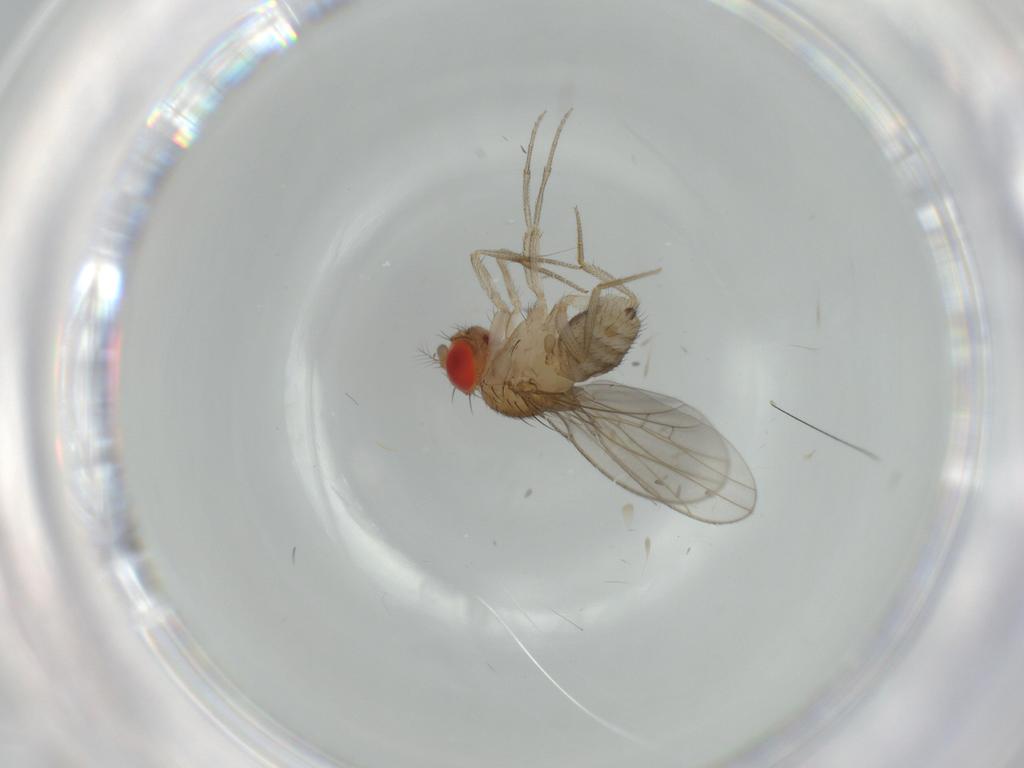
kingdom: Animalia
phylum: Arthropoda
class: Insecta
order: Diptera
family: Drosophilidae
